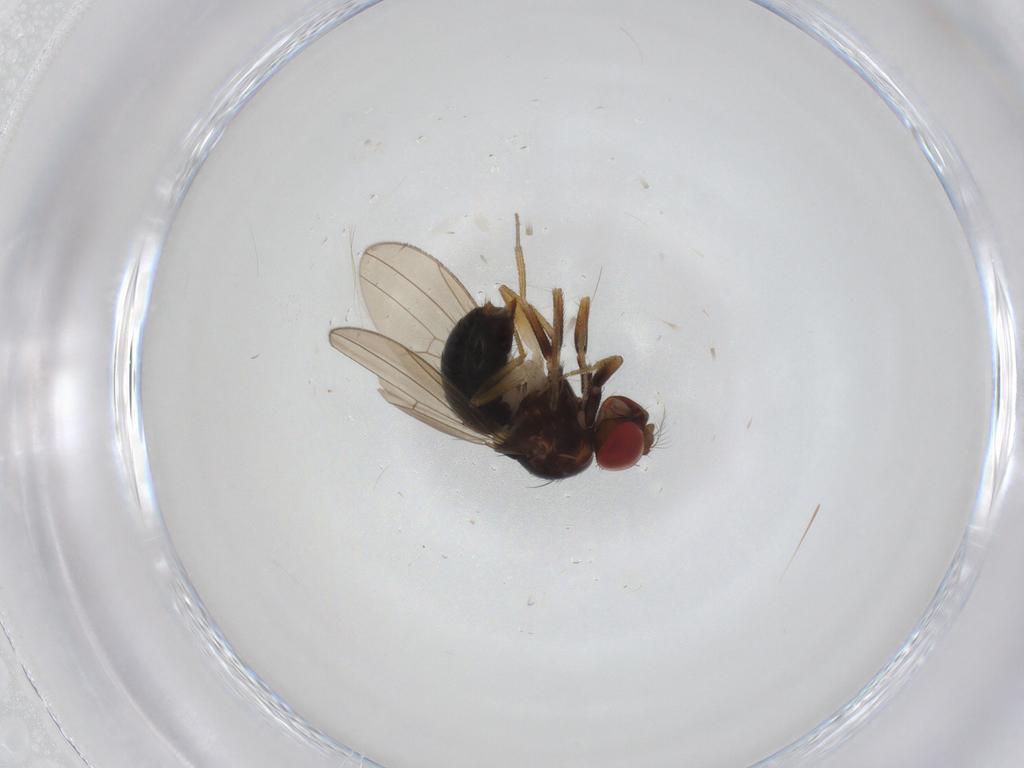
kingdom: Animalia
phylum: Arthropoda
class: Insecta
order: Diptera
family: Drosophilidae
